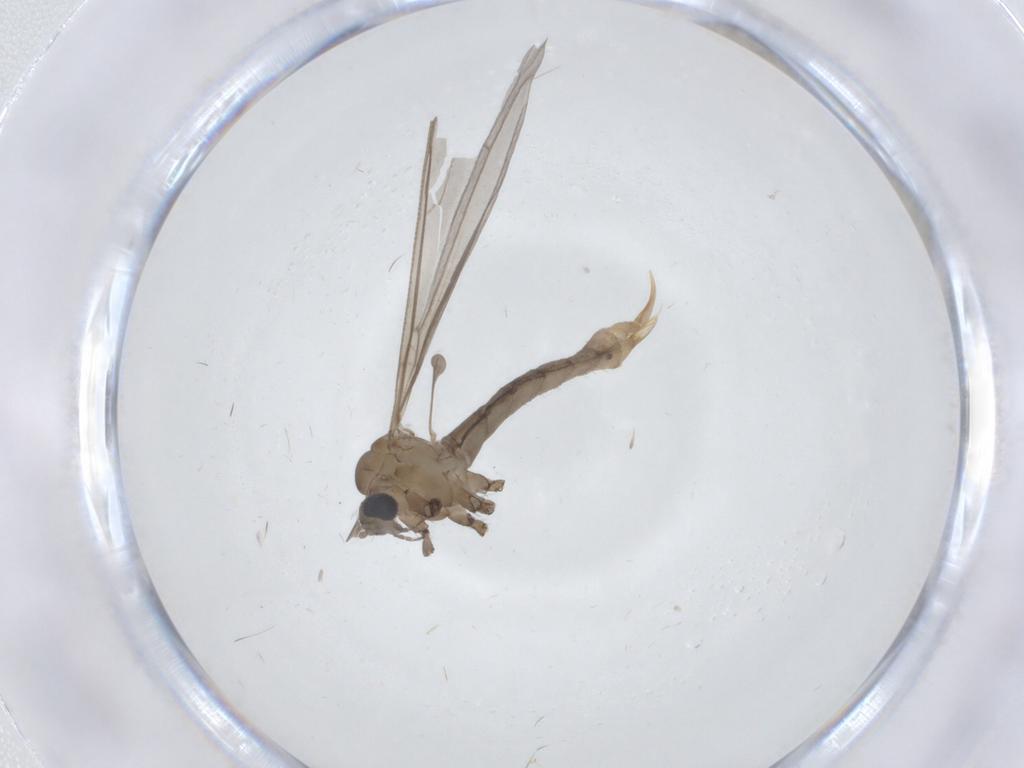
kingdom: Animalia
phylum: Arthropoda
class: Insecta
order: Diptera
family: Limoniidae
